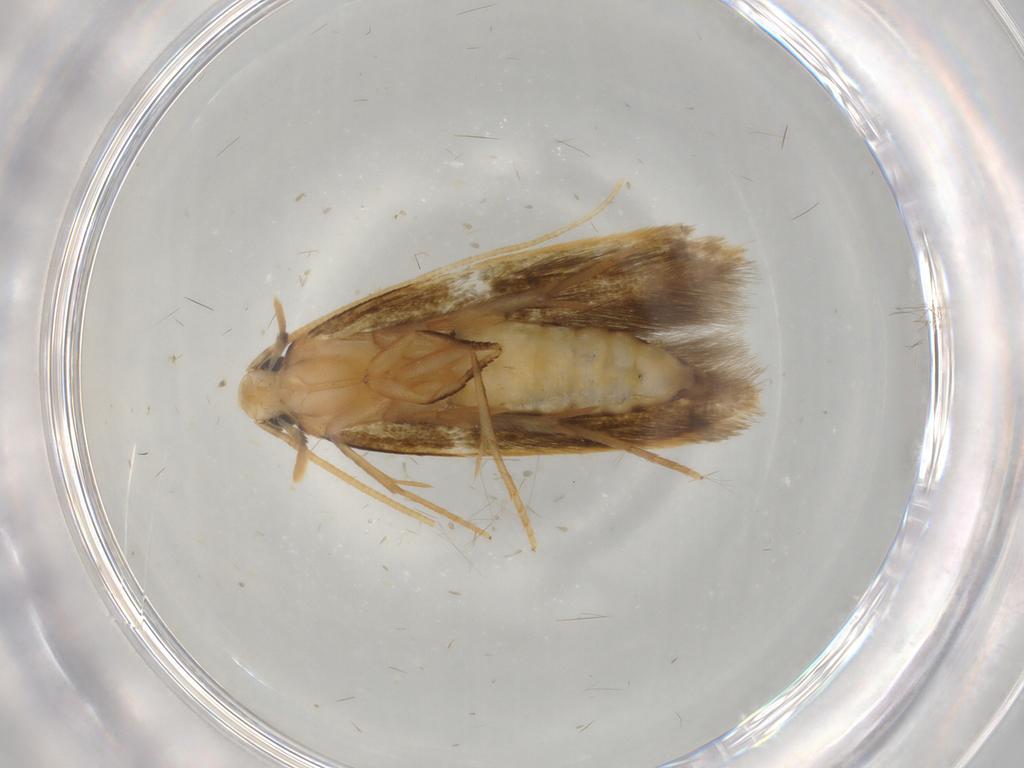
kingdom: Animalia
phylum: Arthropoda
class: Insecta
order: Lepidoptera
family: Tineidae
